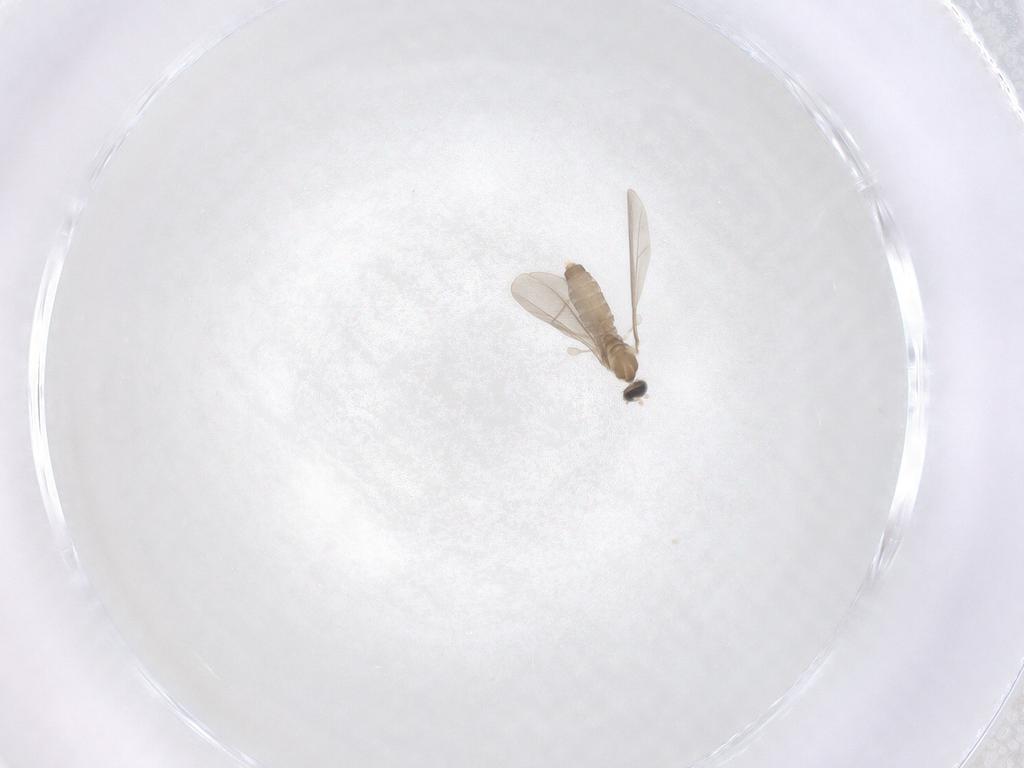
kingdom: Animalia
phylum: Arthropoda
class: Insecta
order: Diptera
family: Cecidomyiidae
